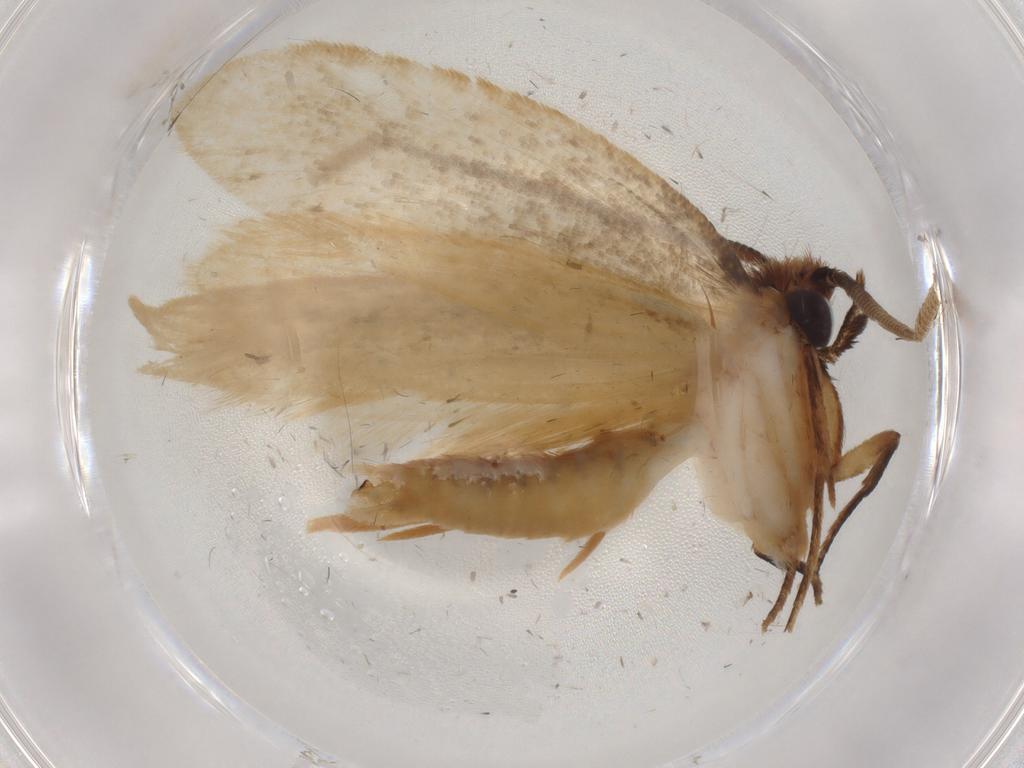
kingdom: Animalia
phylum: Arthropoda
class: Insecta
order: Lepidoptera
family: Tineidae
